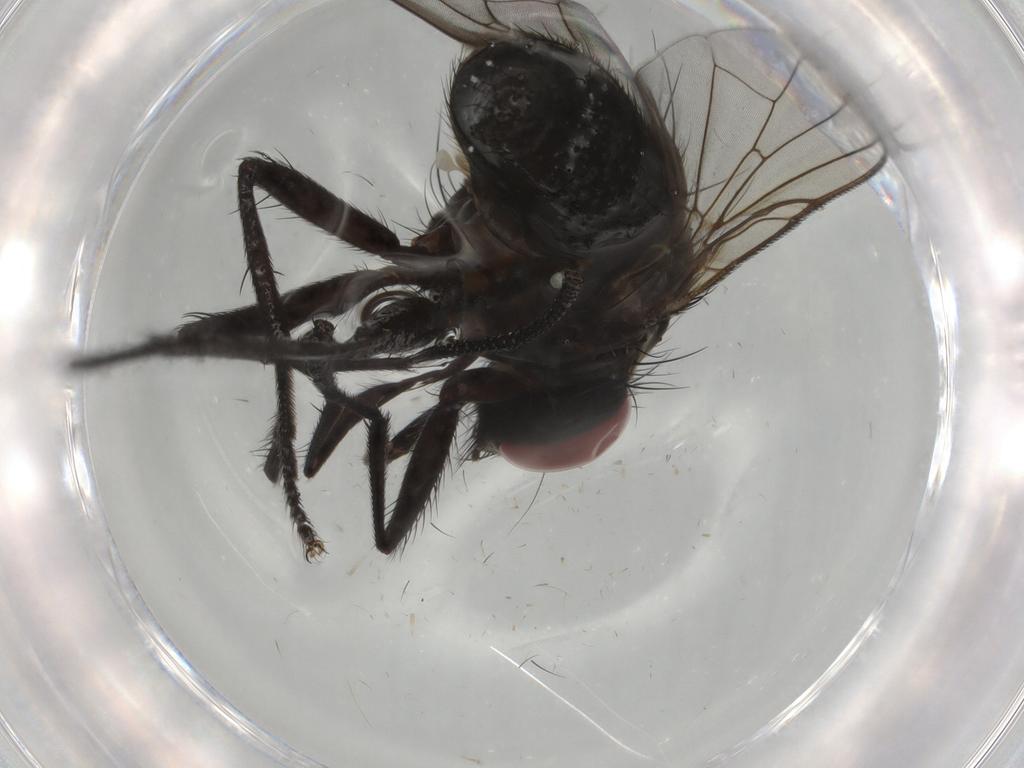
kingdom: Animalia
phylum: Arthropoda
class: Insecta
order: Diptera
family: Muscidae
